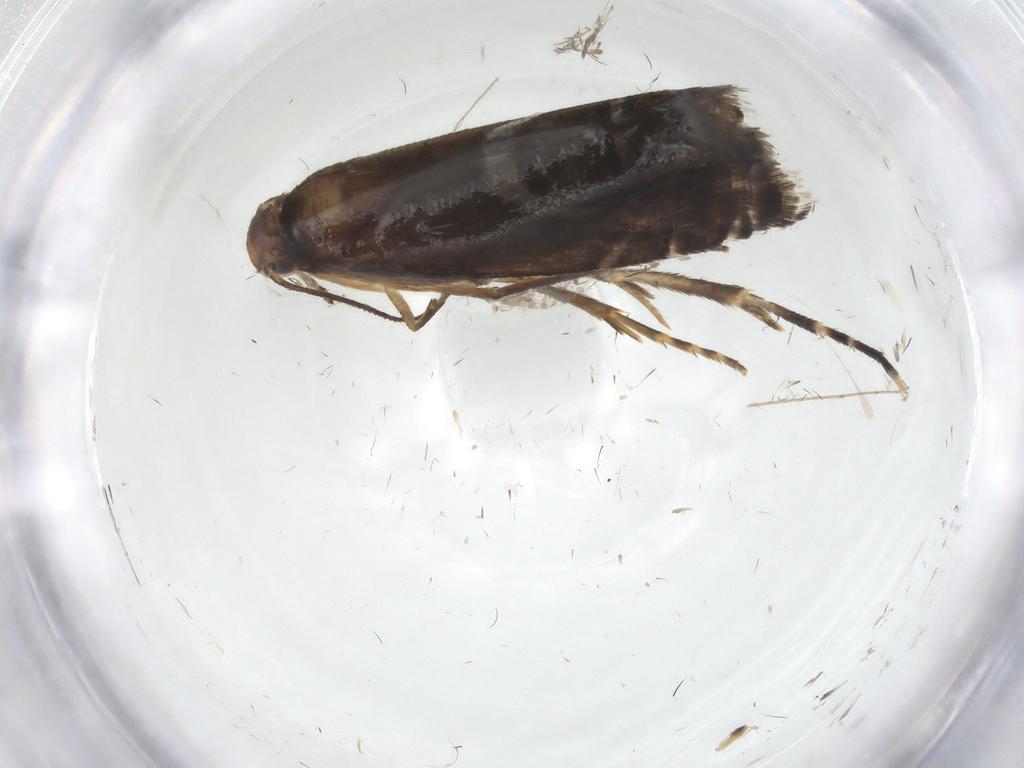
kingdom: Animalia
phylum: Arthropoda
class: Insecta
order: Lepidoptera
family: Glyphipterigidae
